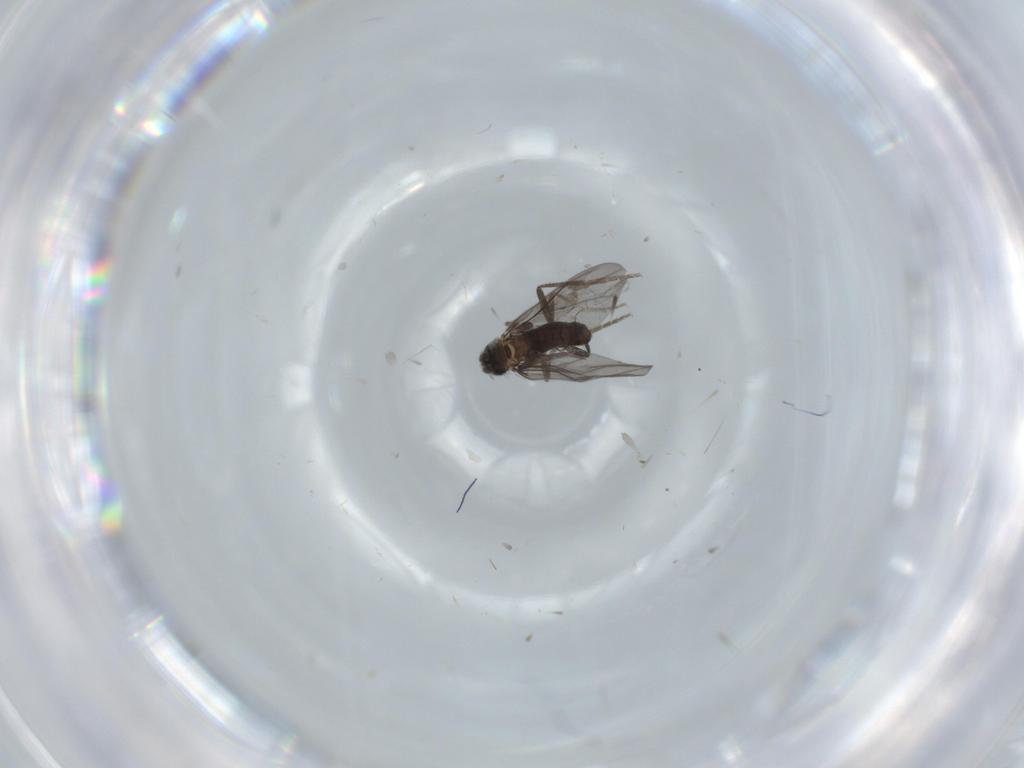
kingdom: Animalia
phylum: Arthropoda
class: Insecta
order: Diptera
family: Phoridae
